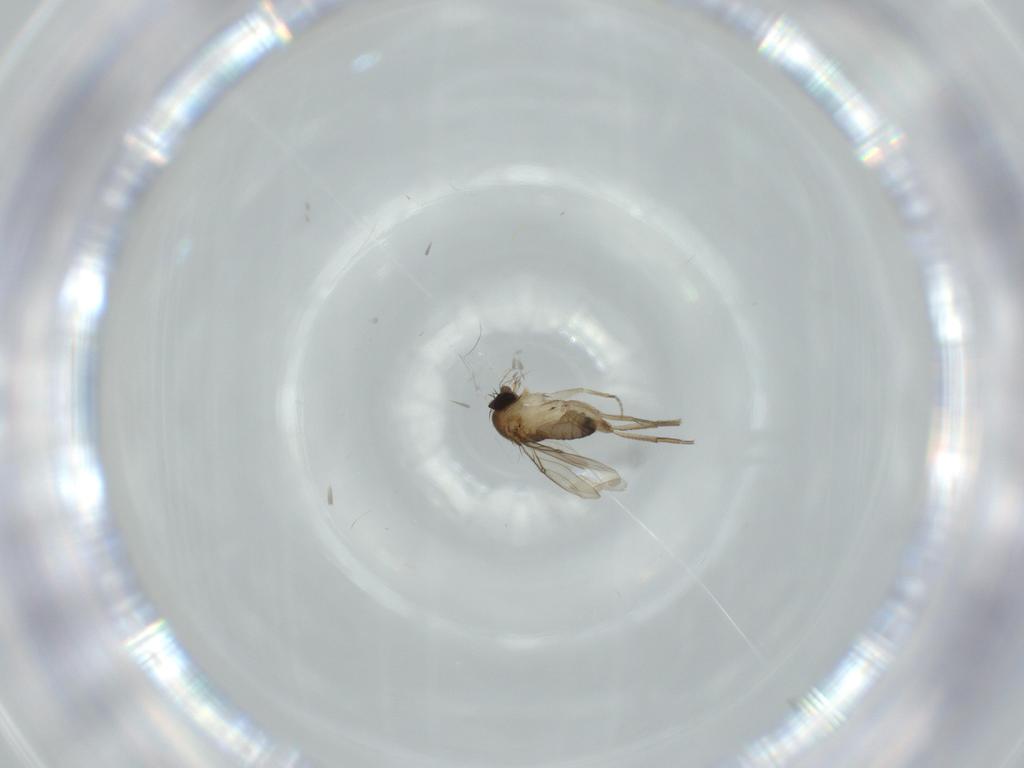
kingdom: Animalia
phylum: Arthropoda
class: Insecta
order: Diptera
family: Phoridae
